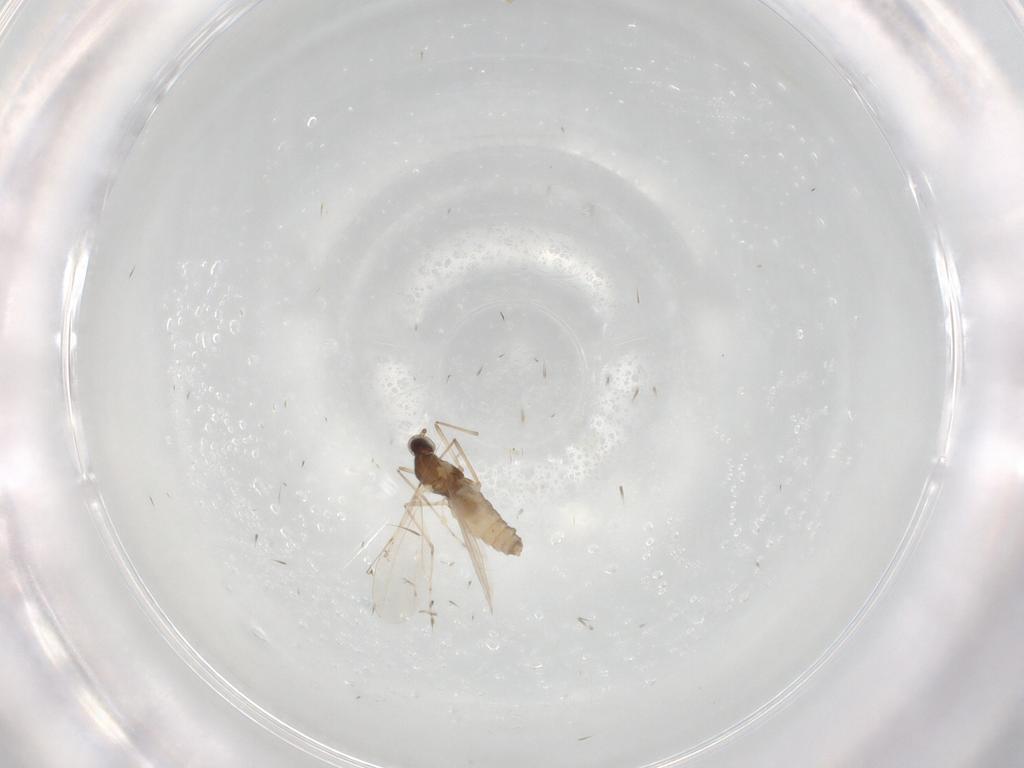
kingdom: Animalia
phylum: Arthropoda
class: Insecta
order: Diptera
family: Cecidomyiidae
